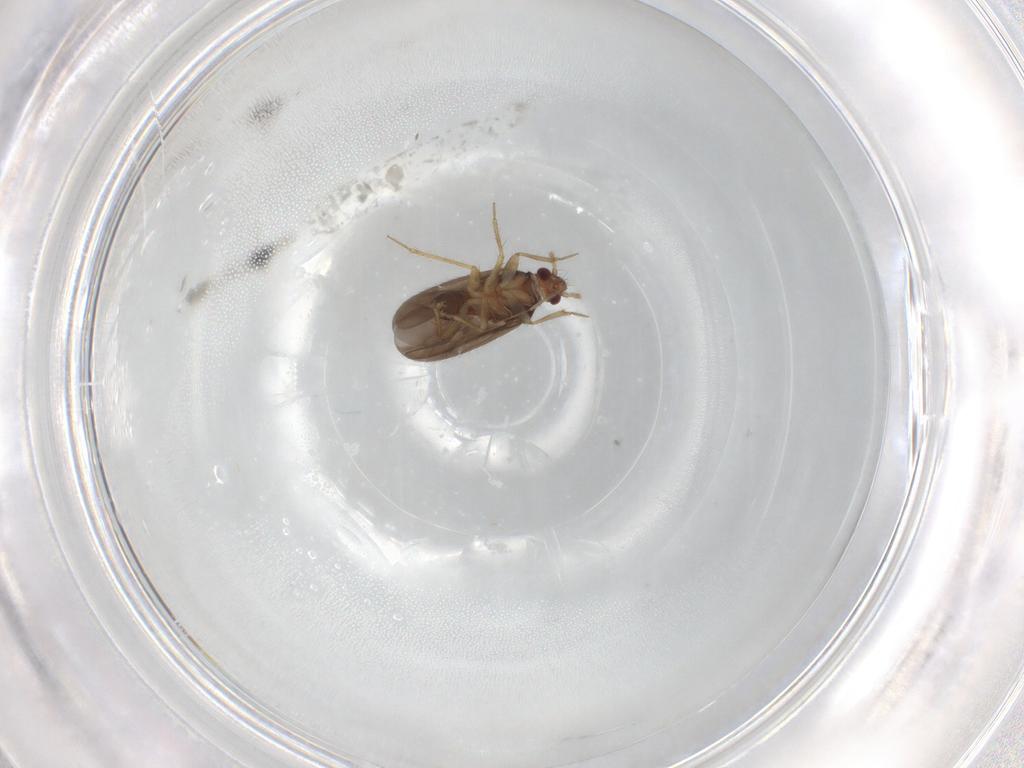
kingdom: Animalia
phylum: Arthropoda
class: Insecta
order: Hemiptera
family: Ceratocombidae
